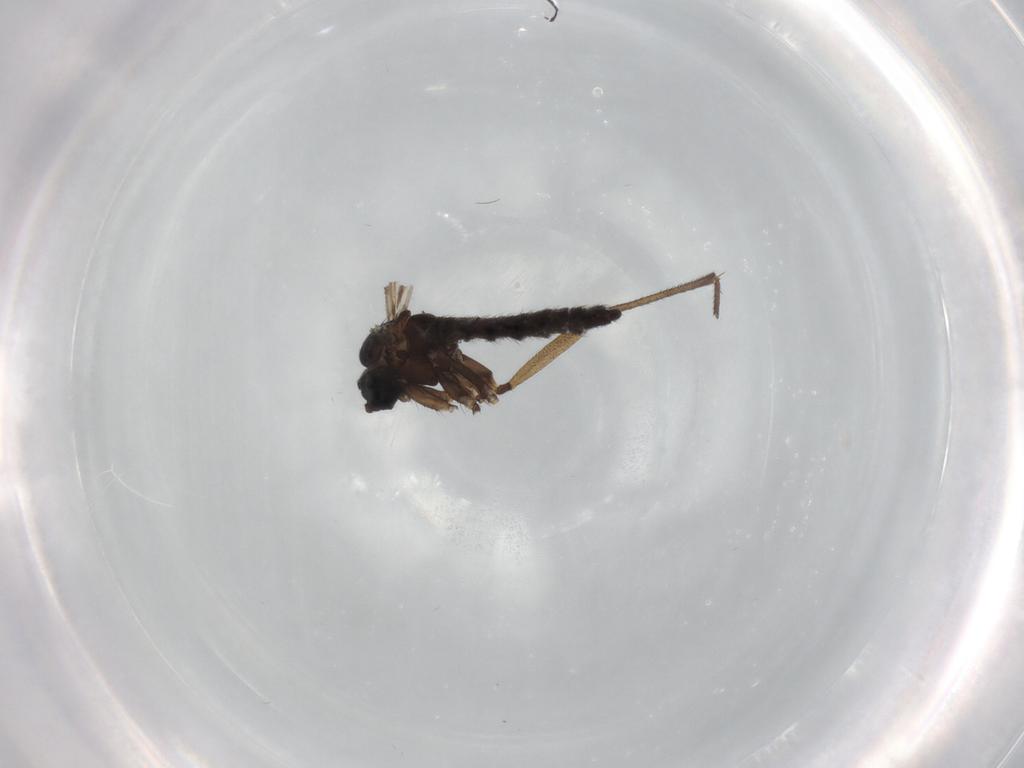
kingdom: Animalia
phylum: Arthropoda
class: Insecta
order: Diptera
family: Sciaridae
